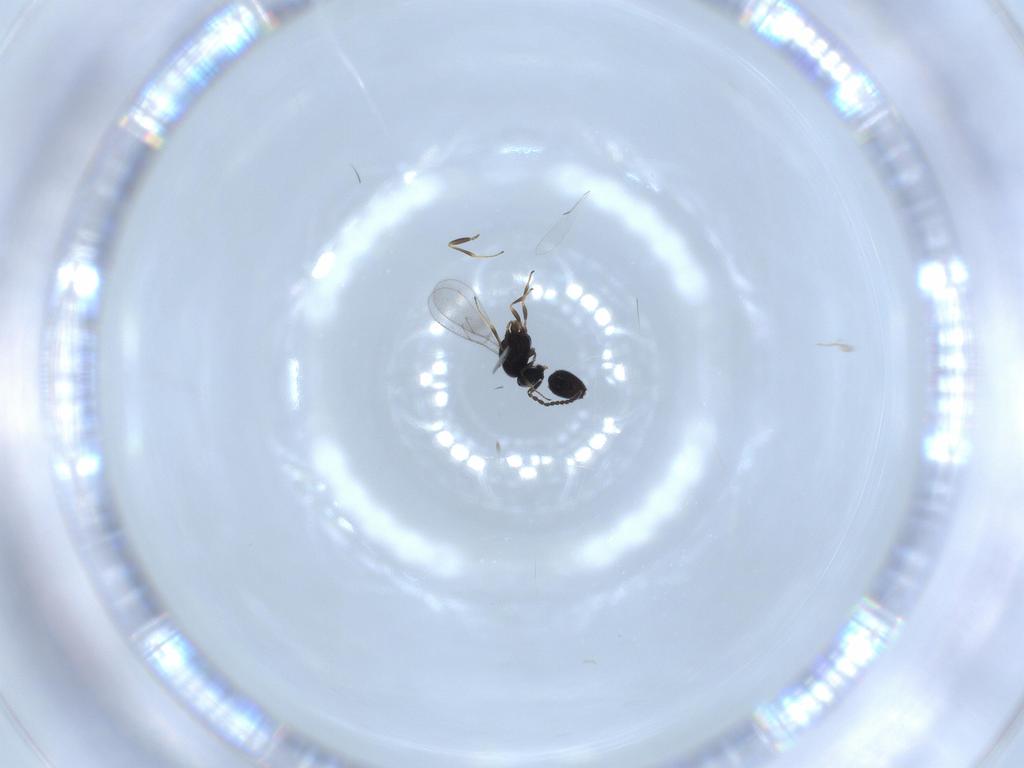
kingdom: Animalia
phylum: Arthropoda
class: Insecta
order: Hymenoptera
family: Scelionidae
